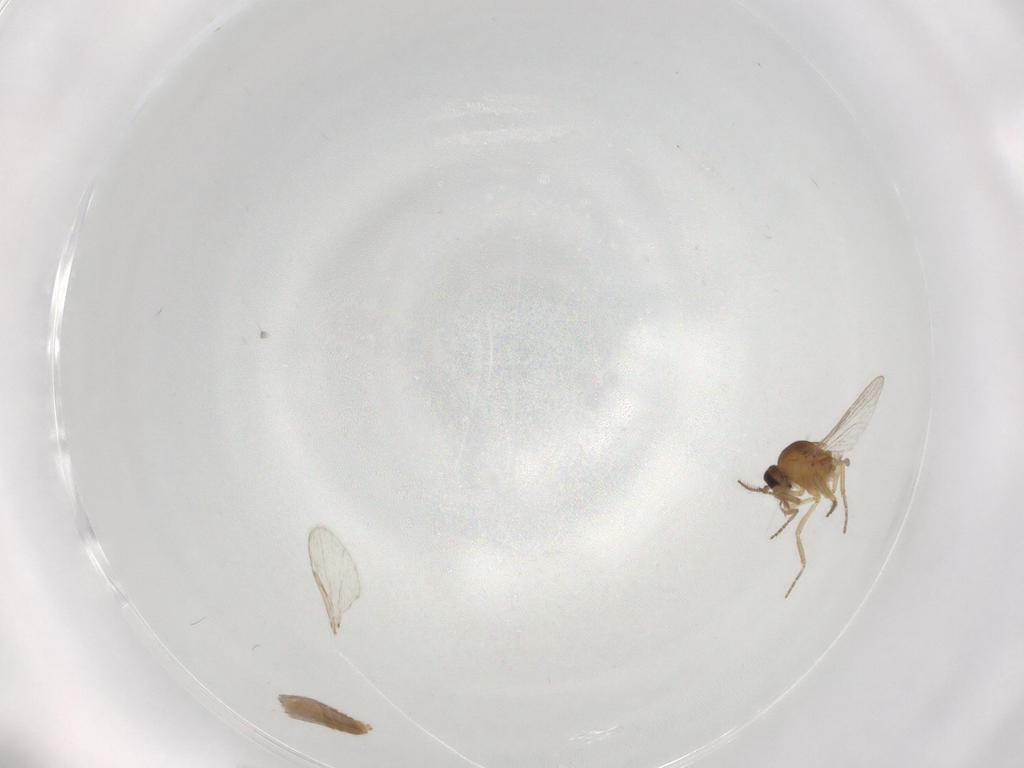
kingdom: Animalia
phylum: Arthropoda
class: Insecta
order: Diptera
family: Ceratopogonidae
